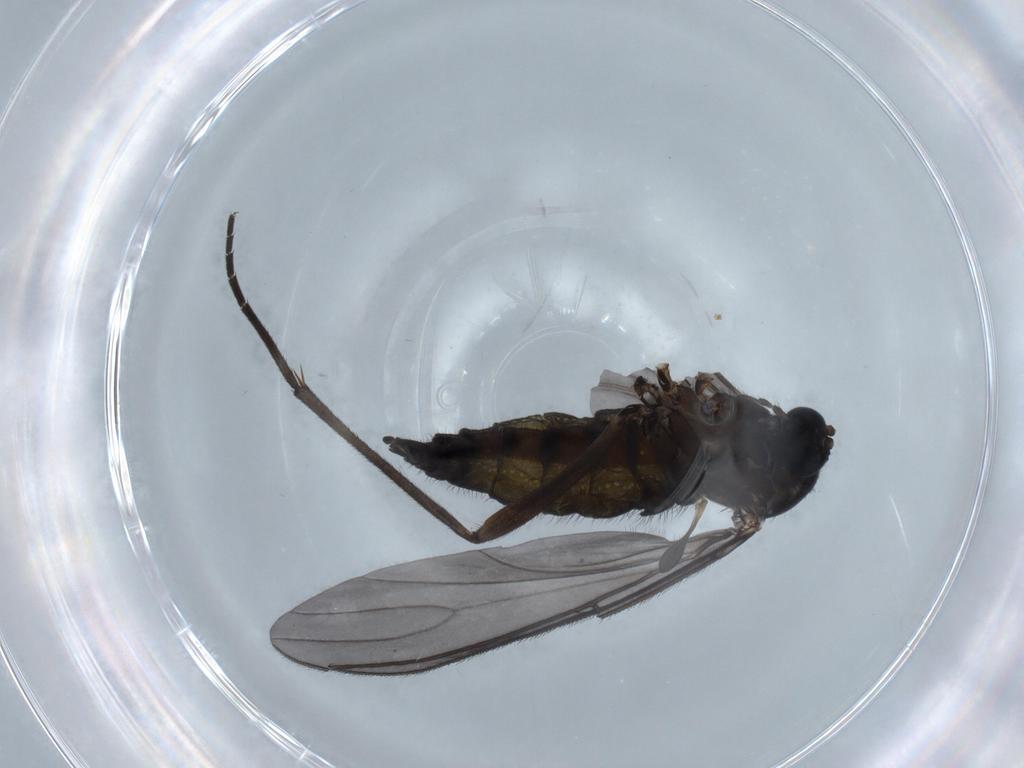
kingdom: Animalia
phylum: Arthropoda
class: Insecta
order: Diptera
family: Sciaridae
